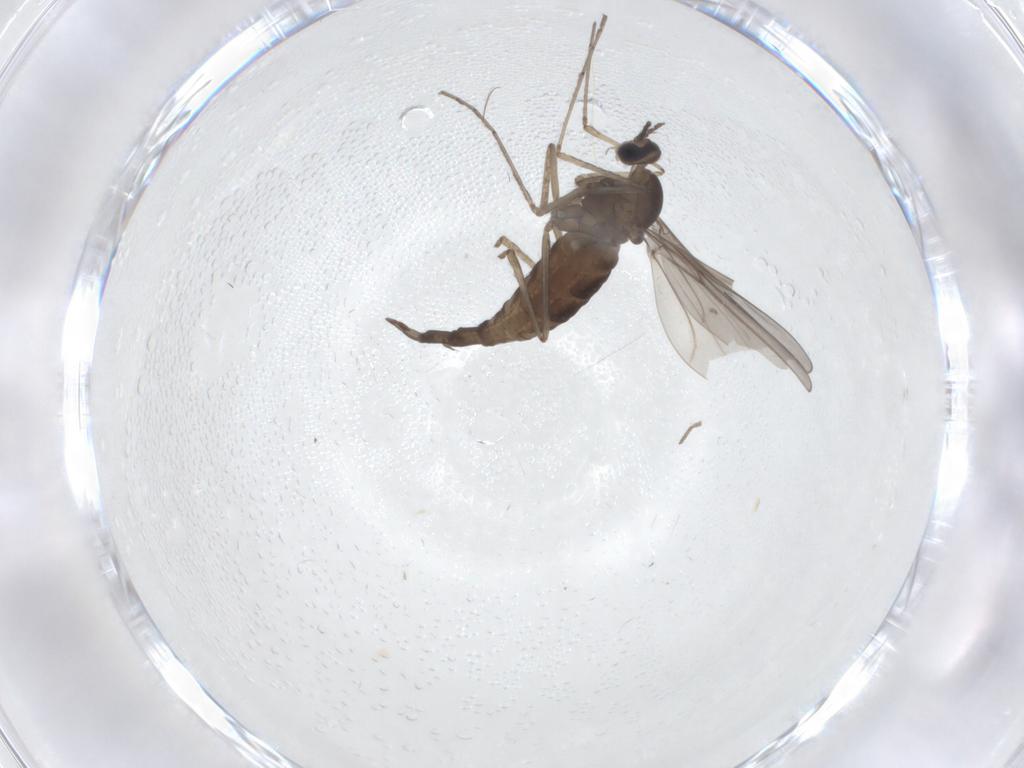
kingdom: Animalia
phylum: Arthropoda
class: Insecta
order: Diptera
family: Cecidomyiidae
